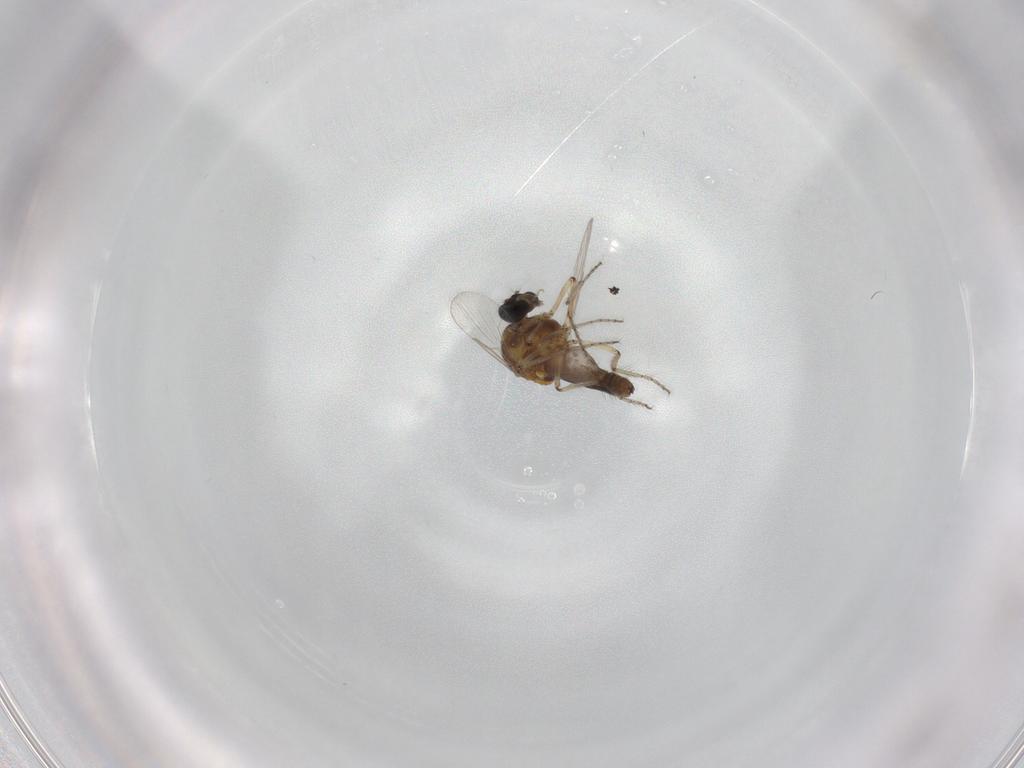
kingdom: Animalia
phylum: Arthropoda
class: Insecta
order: Diptera
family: Ceratopogonidae
